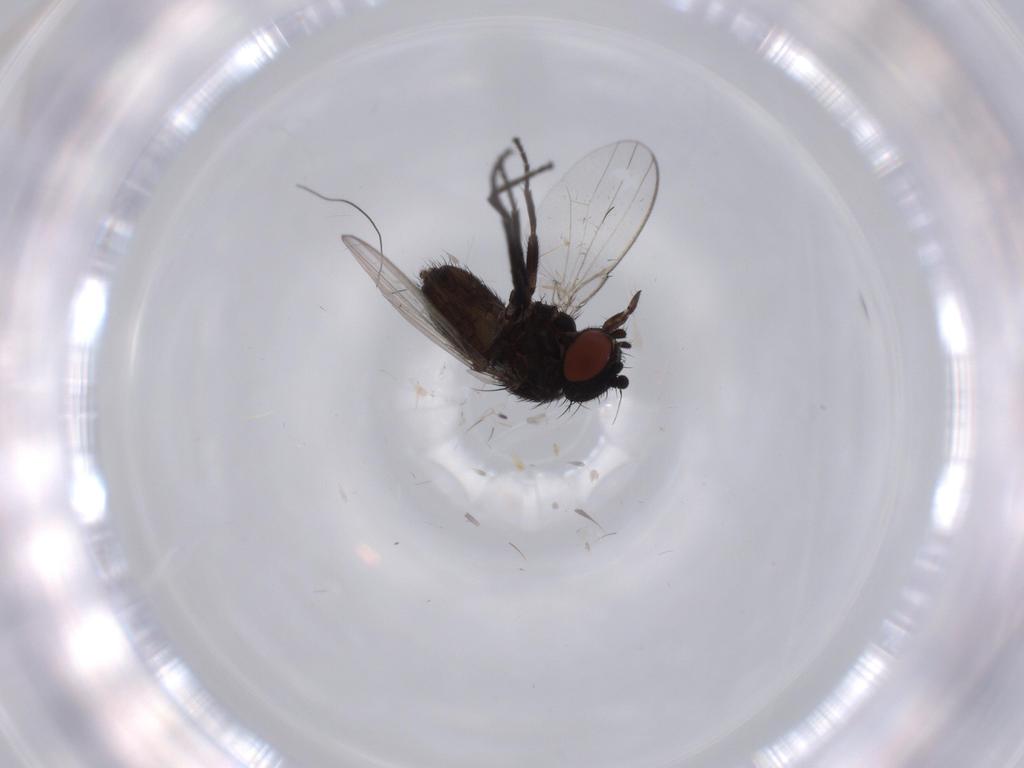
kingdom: Animalia
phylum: Arthropoda
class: Insecta
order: Diptera
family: Milichiidae
